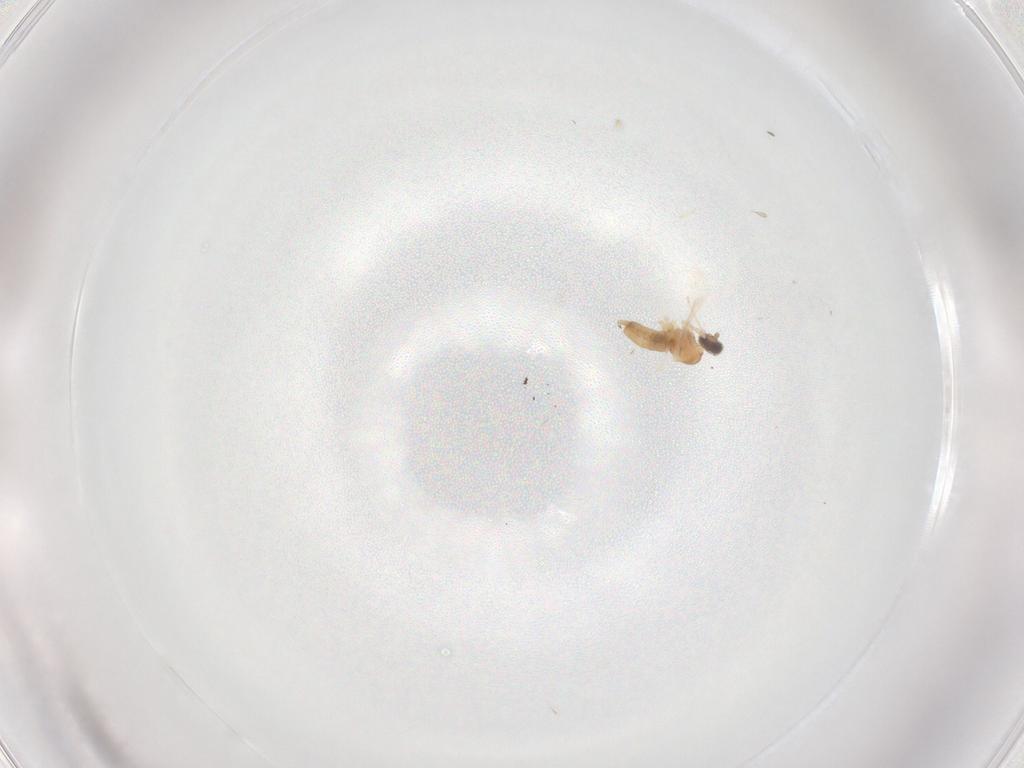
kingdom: Animalia
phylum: Arthropoda
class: Insecta
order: Diptera
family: Cecidomyiidae
